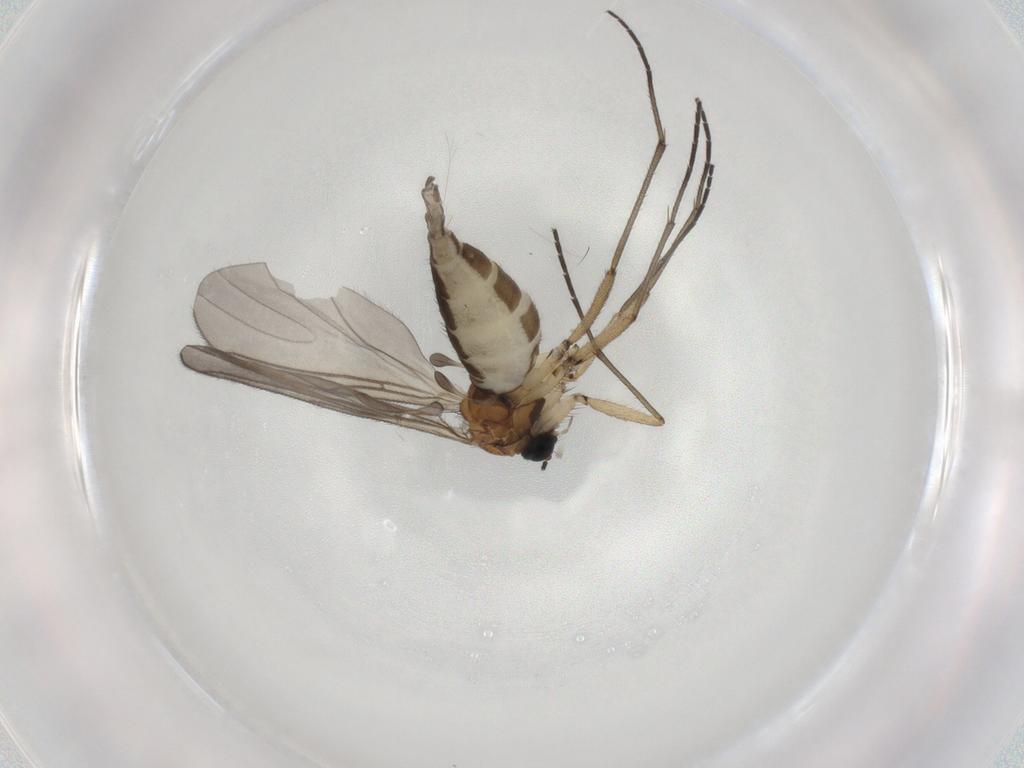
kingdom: Animalia
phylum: Arthropoda
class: Insecta
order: Diptera
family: Sciaridae
